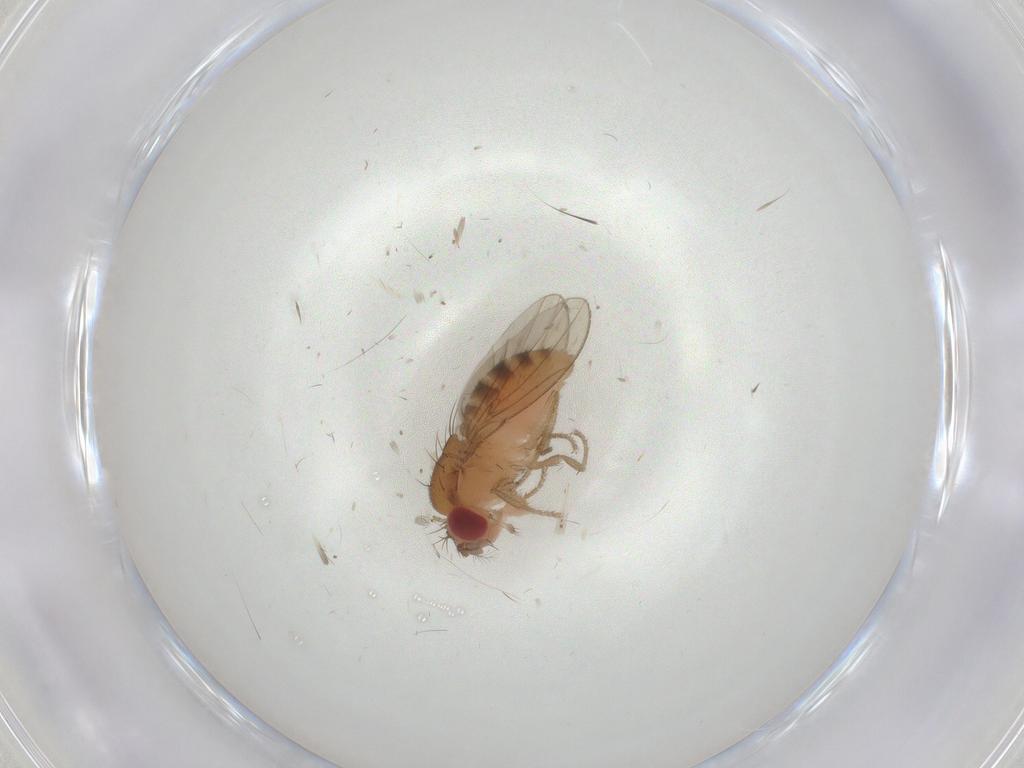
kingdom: Animalia
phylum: Arthropoda
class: Insecta
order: Diptera
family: Drosophilidae
